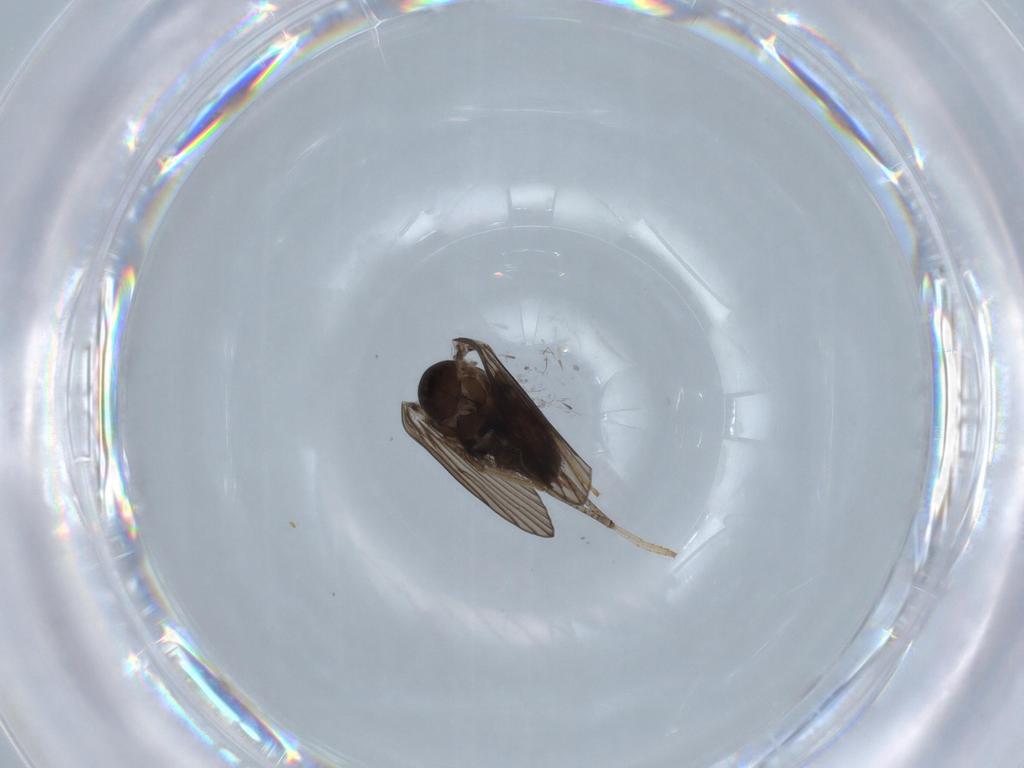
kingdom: Animalia
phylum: Arthropoda
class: Insecta
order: Diptera
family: Psychodidae
